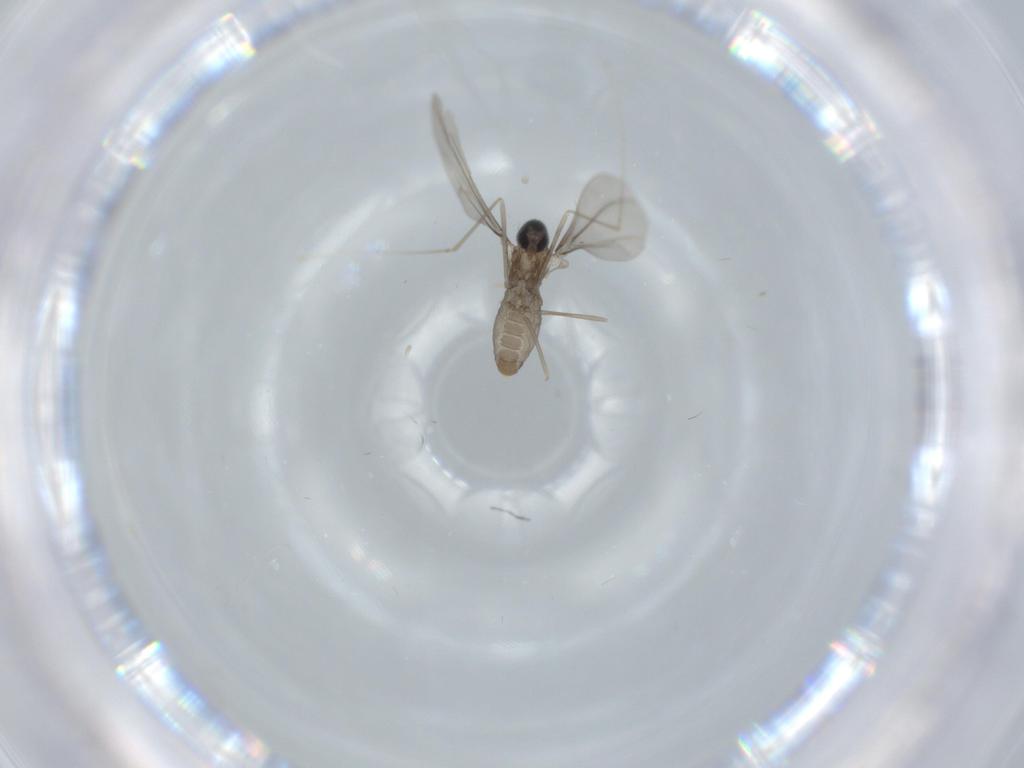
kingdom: Animalia
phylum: Arthropoda
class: Insecta
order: Diptera
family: Cecidomyiidae
